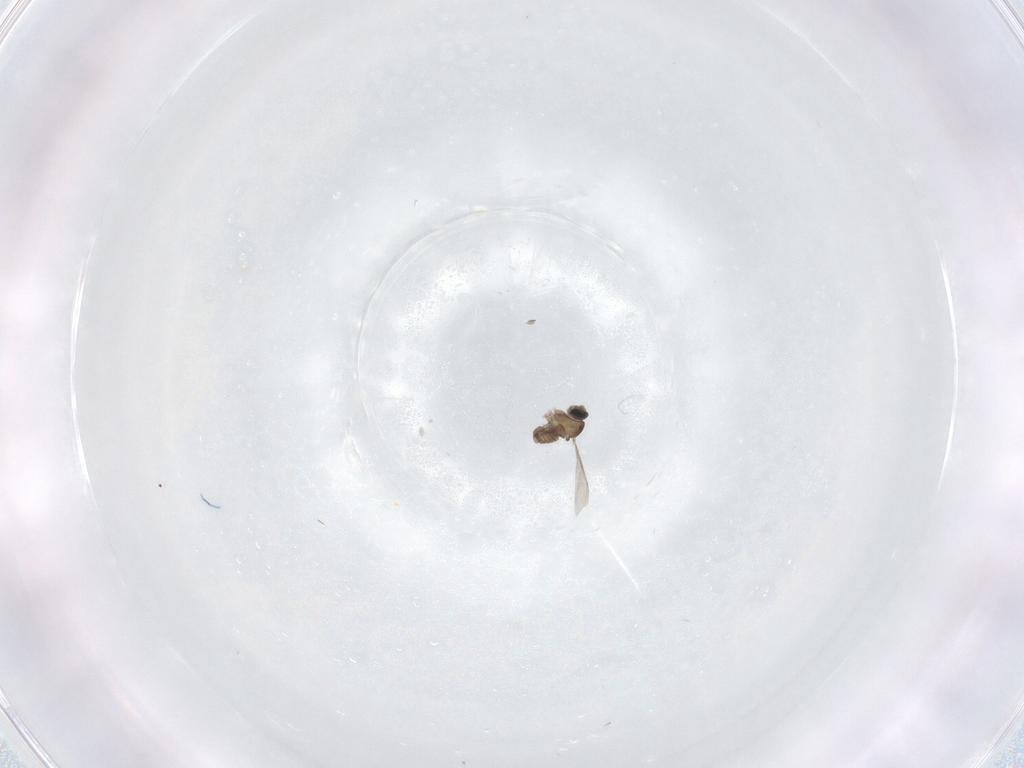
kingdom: Animalia
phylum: Arthropoda
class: Insecta
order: Diptera
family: Cecidomyiidae
